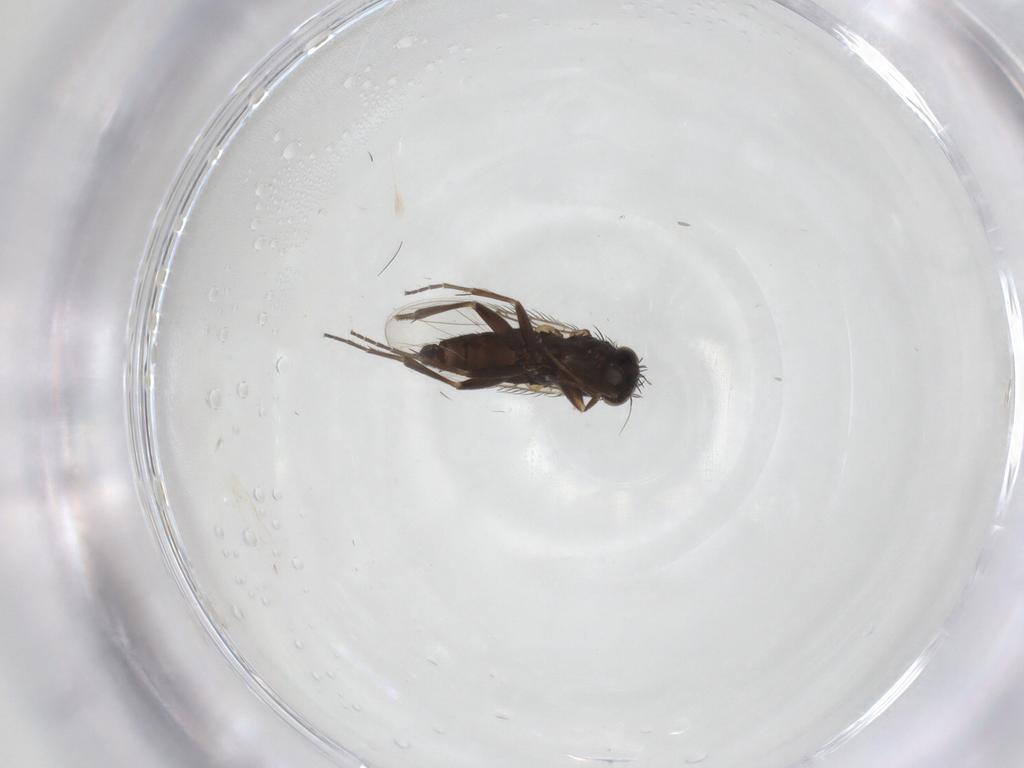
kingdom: Animalia
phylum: Arthropoda
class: Insecta
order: Diptera
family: Phoridae
